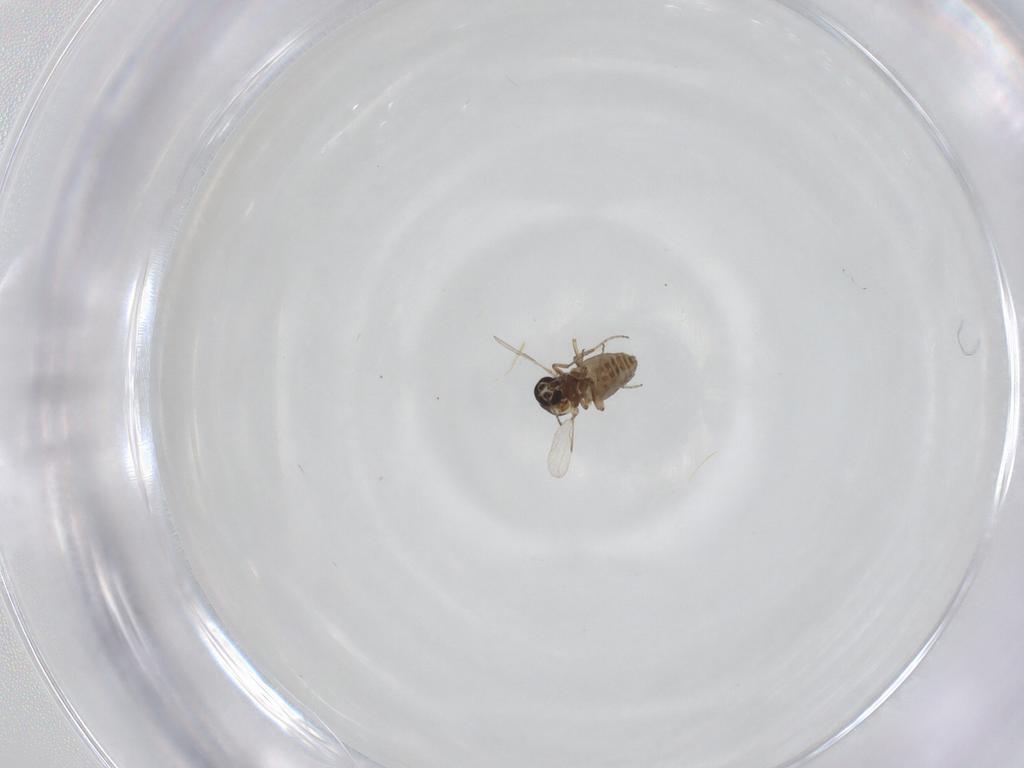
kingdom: Animalia
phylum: Arthropoda
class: Insecta
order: Diptera
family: Ceratopogonidae
